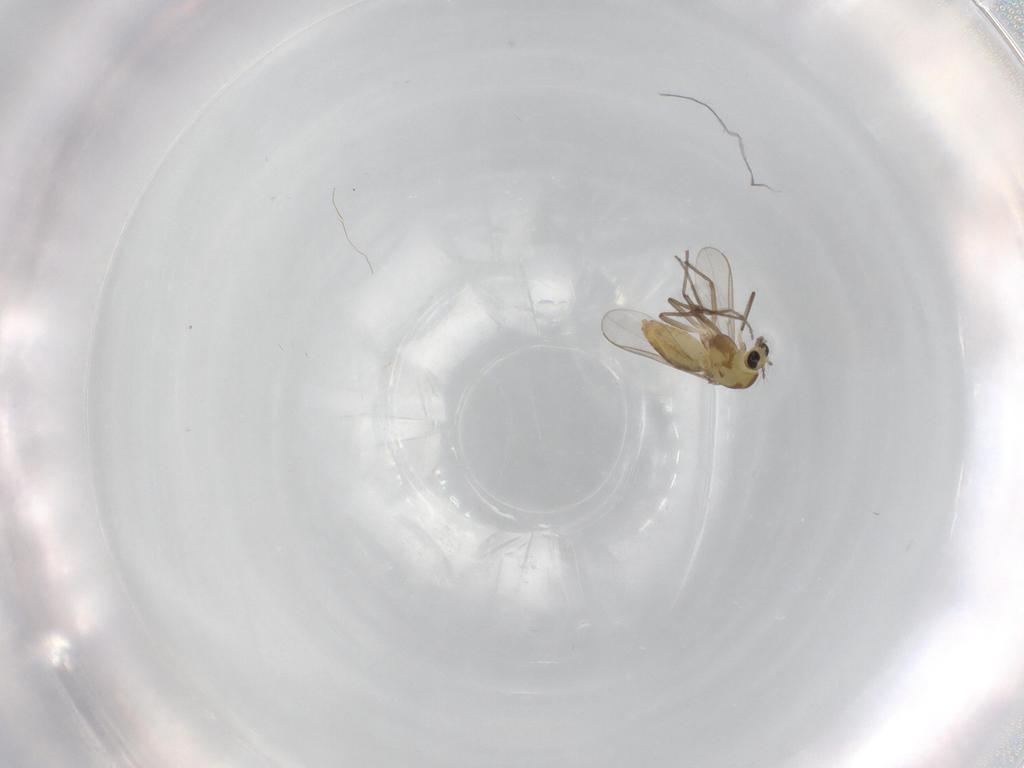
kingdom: Animalia
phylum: Arthropoda
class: Insecta
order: Diptera
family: Chironomidae
